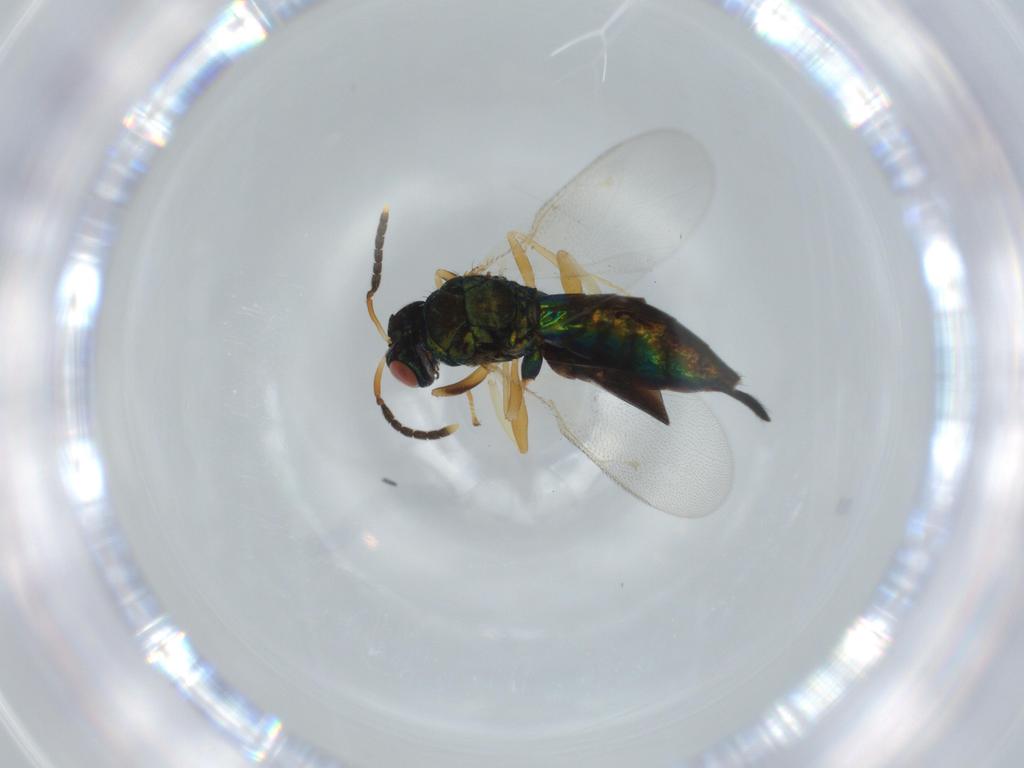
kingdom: Animalia
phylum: Arthropoda
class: Insecta
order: Hymenoptera
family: Pteromalidae
